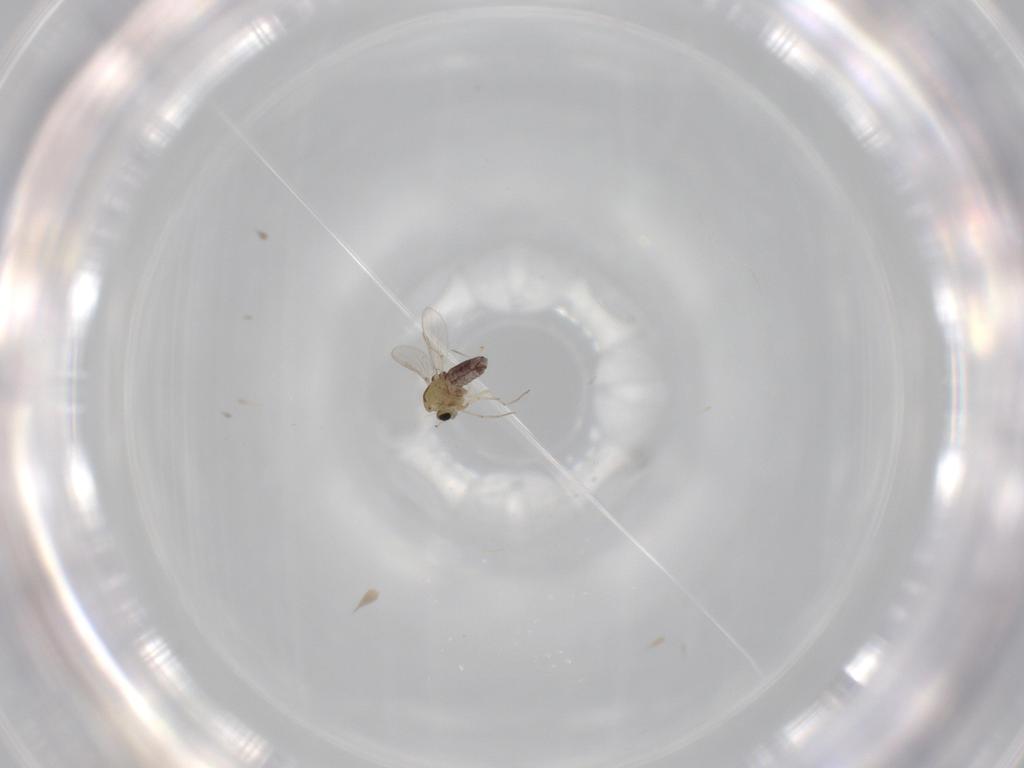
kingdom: Animalia
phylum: Arthropoda
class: Insecta
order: Diptera
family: Chironomidae
